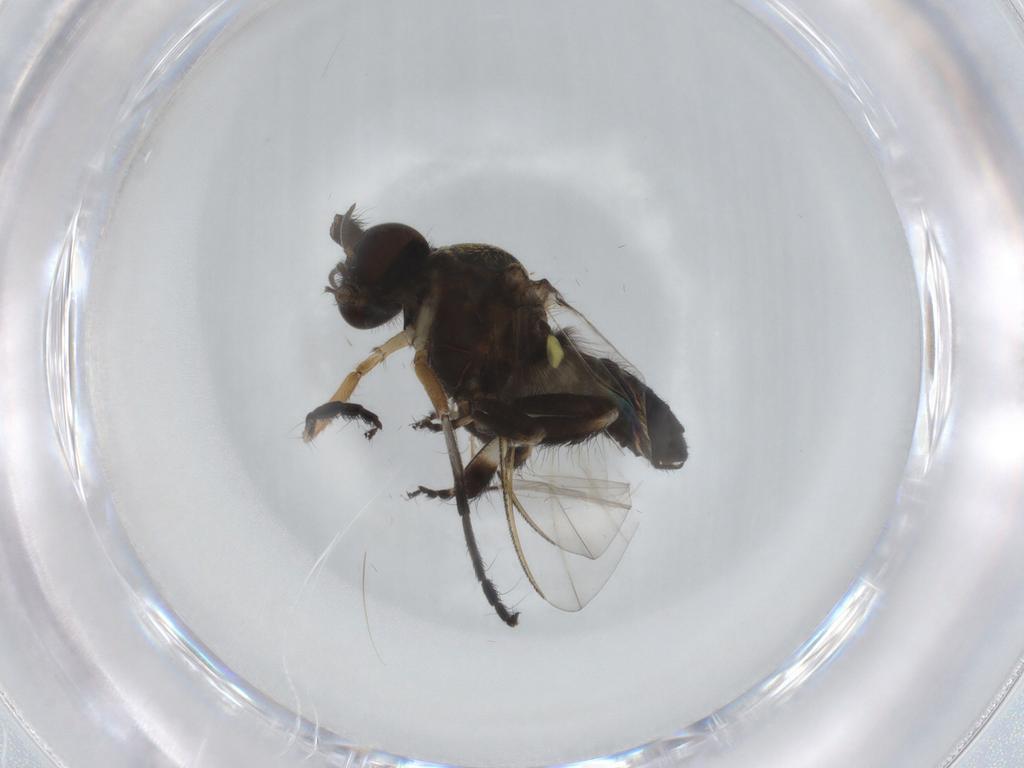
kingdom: Animalia
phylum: Arthropoda
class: Insecta
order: Diptera
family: Sciaridae
